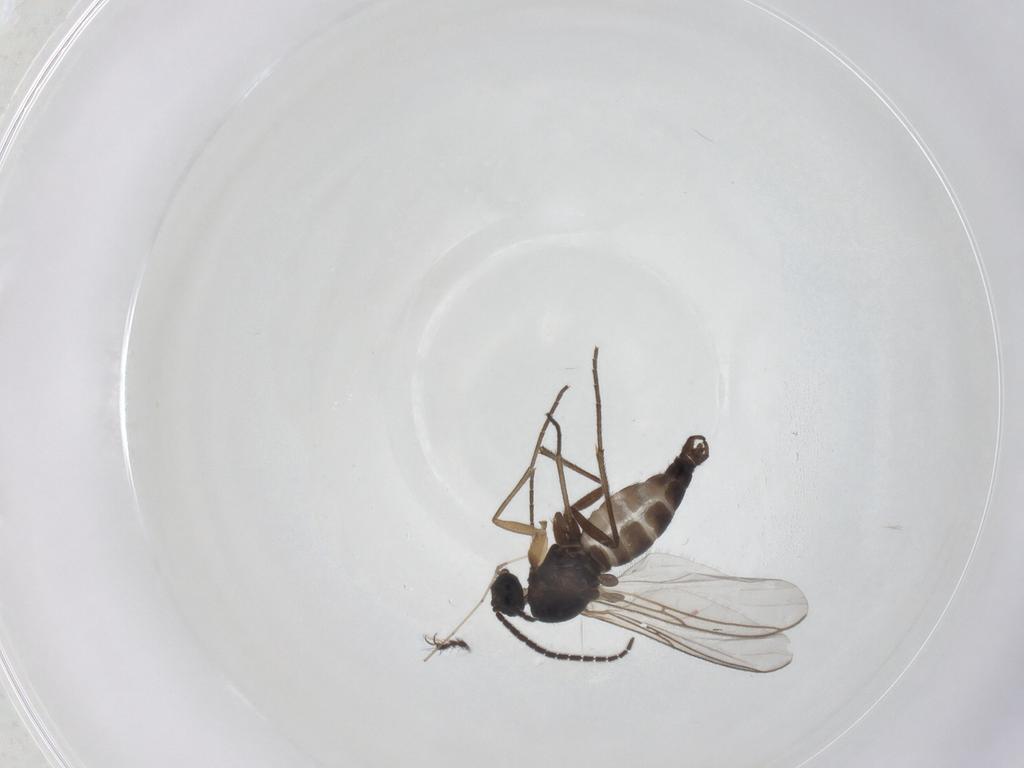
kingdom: Animalia
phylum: Arthropoda
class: Insecta
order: Diptera
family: Sciaridae
